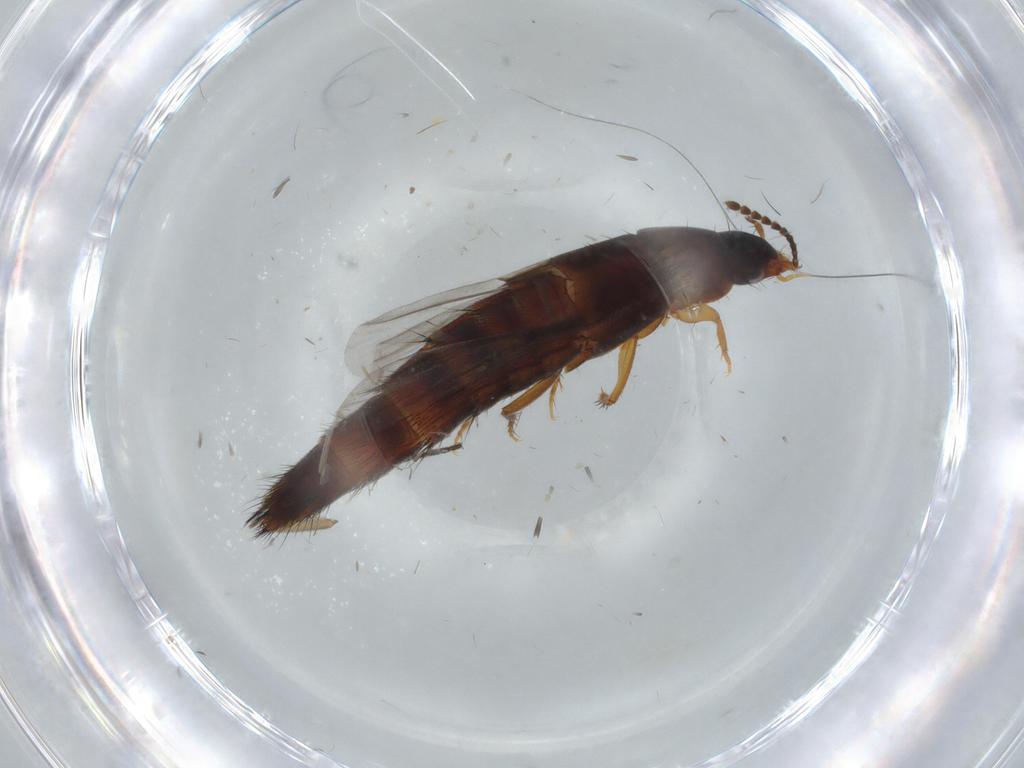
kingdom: Animalia
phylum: Arthropoda
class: Insecta
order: Coleoptera
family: Staphylinidae
